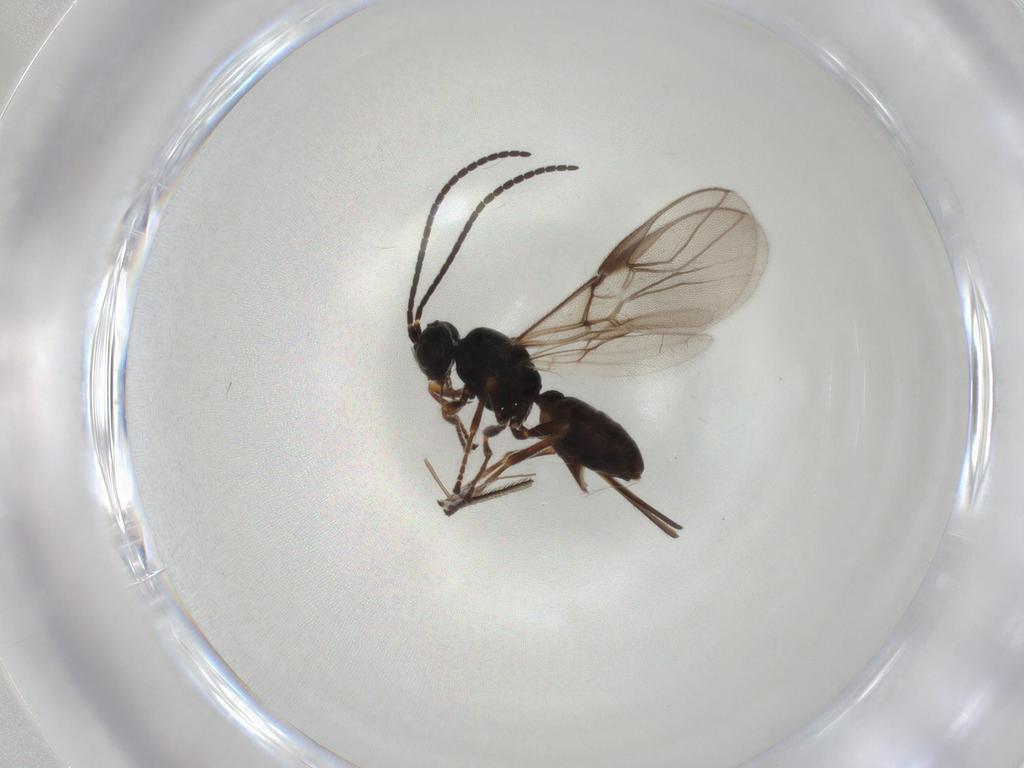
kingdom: Animalia
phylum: Arthropoda
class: Insecta
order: Hymenoptera
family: Braconidae
